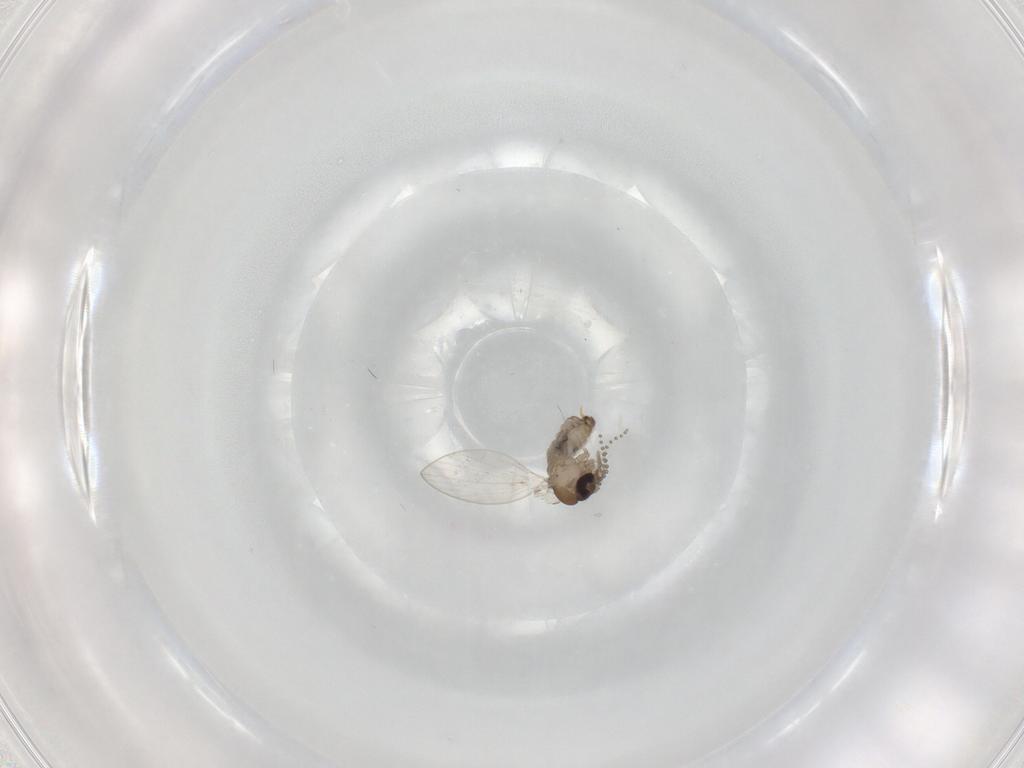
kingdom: Animalia
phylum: Arthropoda
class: Insecta
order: Diptera
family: Psychodidae
